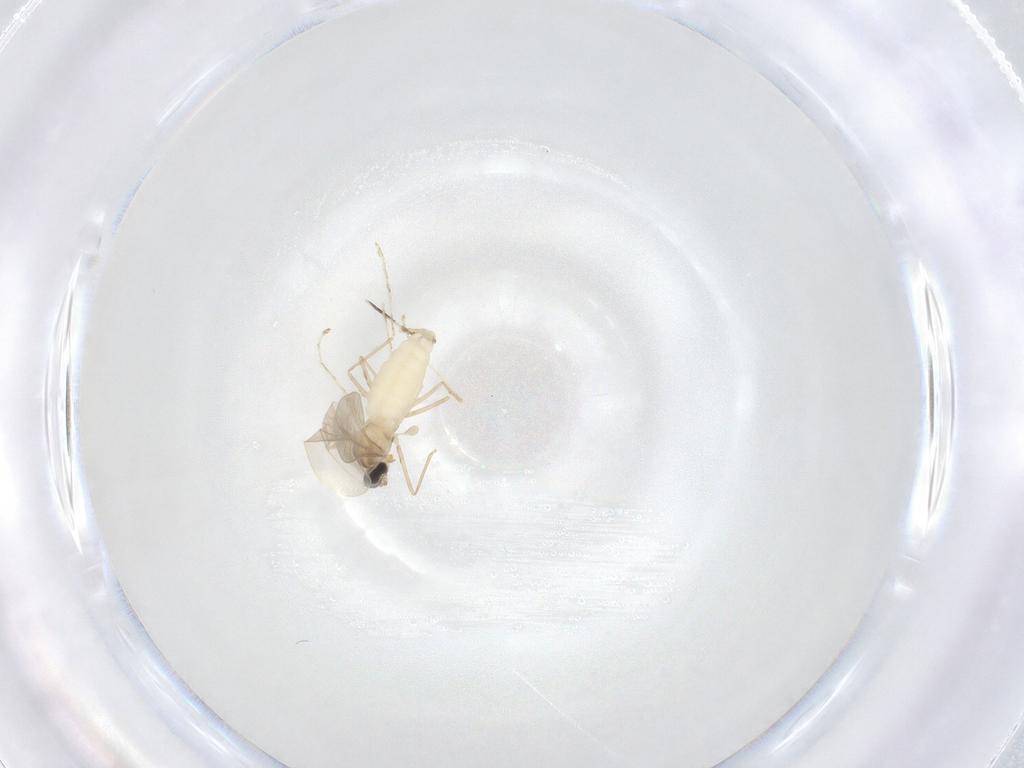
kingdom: Animalia
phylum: Arthropoda
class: Insecta
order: Diptera
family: Cecidomyiidae
